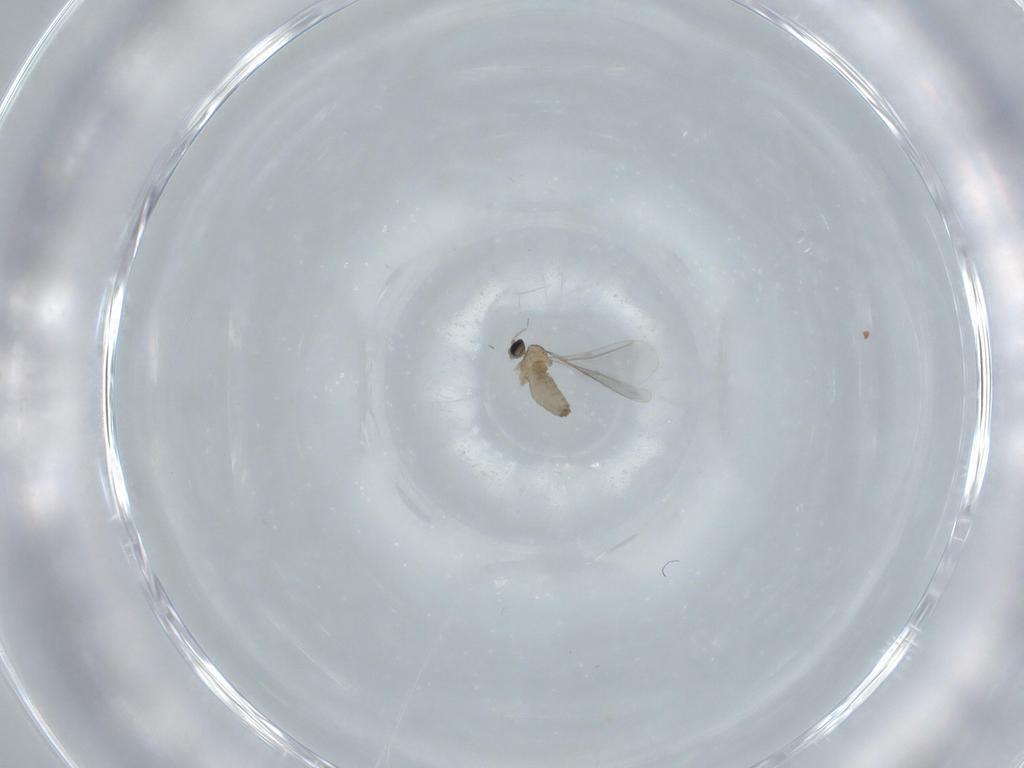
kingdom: Animalia
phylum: Arthropoda
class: Insecta
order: Diptera
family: Cecidomyiidae
